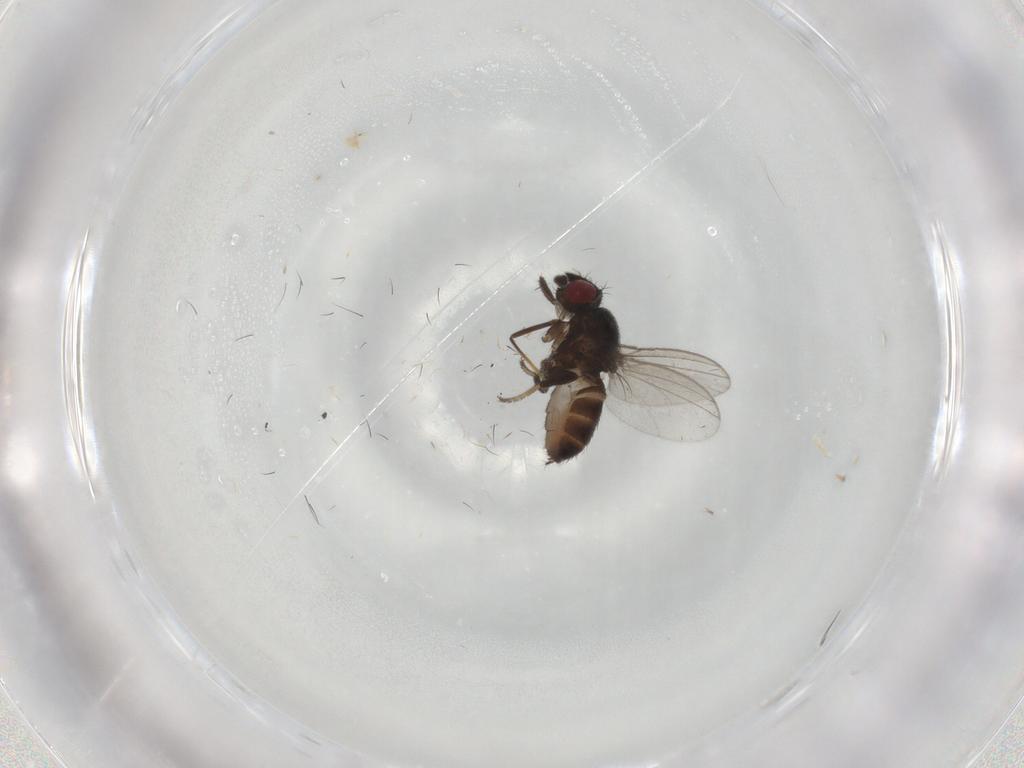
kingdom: Animalia
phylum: Arthropoda
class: Insecta
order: Diptera
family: Milichiidae
